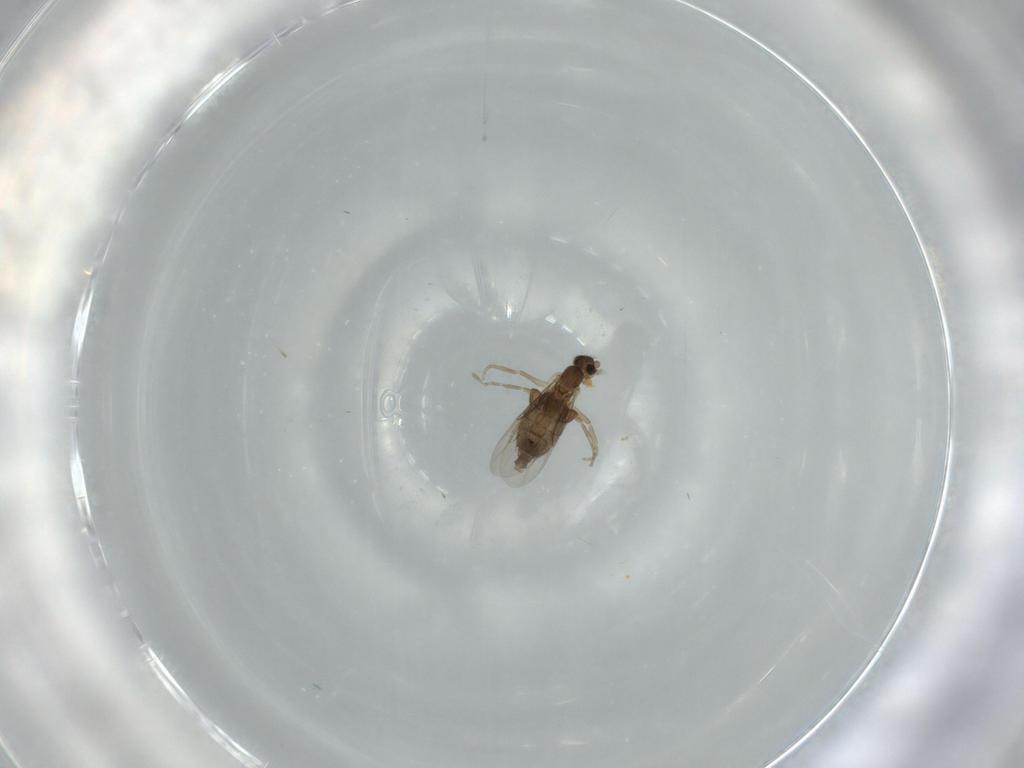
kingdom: Animalia
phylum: Arthropoda
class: Insecta
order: Diptera
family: Phoridae
